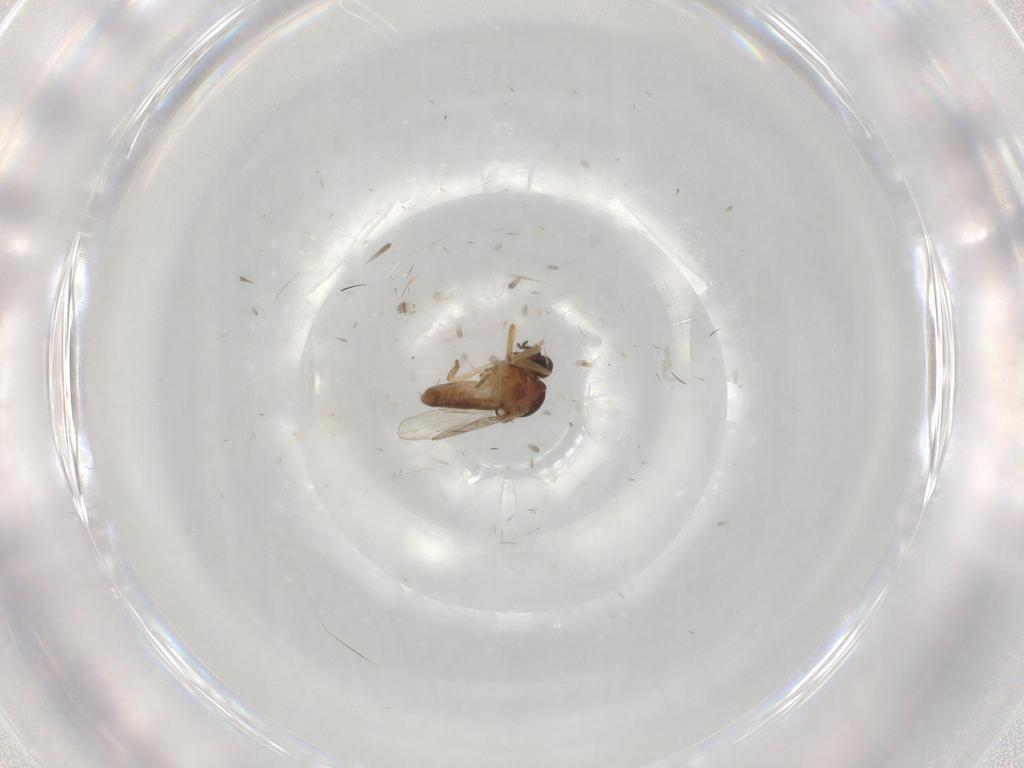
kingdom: Animalia
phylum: Arthropoda
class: Insecta
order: Diptera
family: Ceratopogonidae
